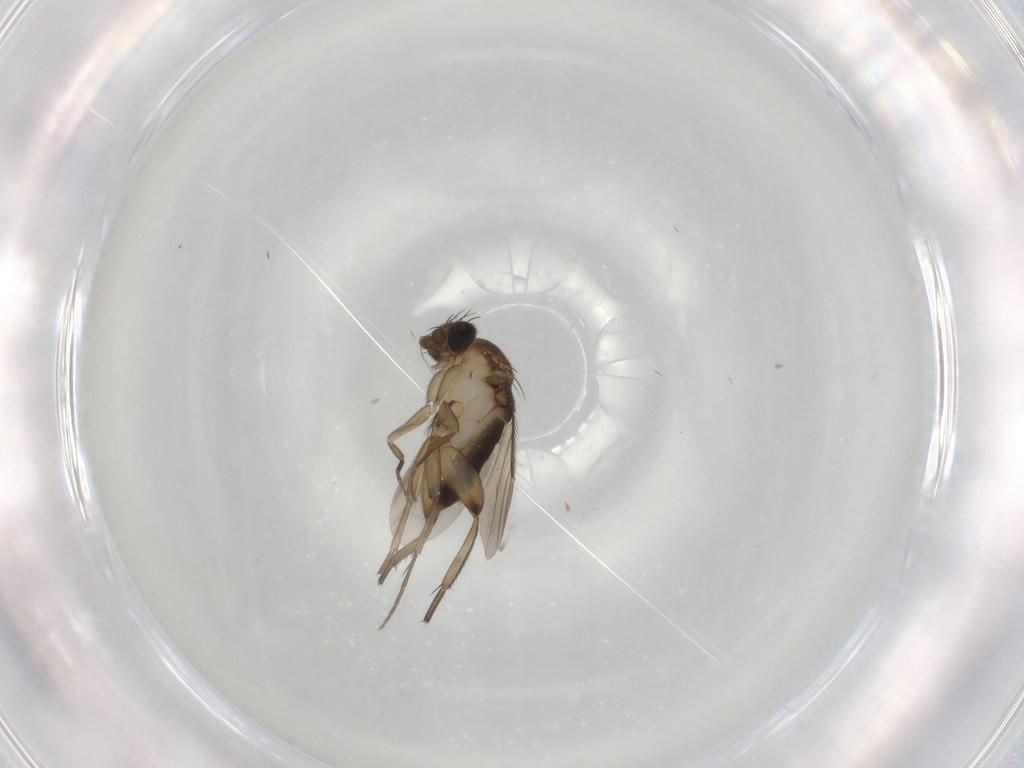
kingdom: Animalia
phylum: Arthropoda
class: Insecta
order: Diptera
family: Phoridae
